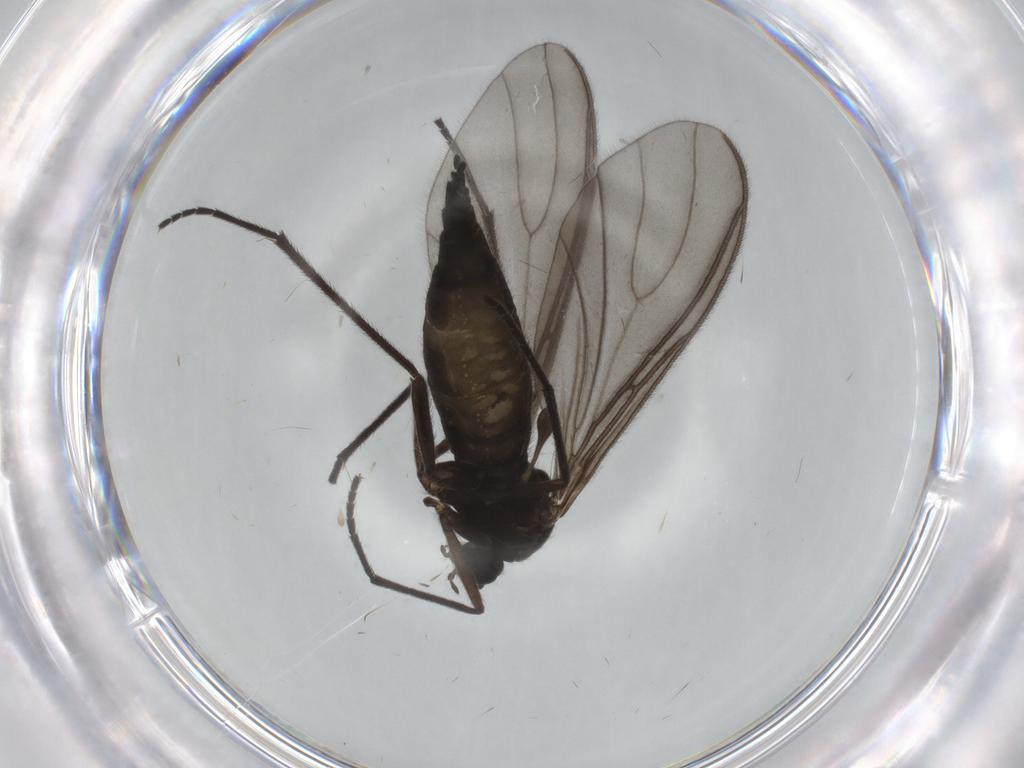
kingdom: Animalia
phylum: Arthropoda
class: Insecta
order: Diptera
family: Sciaridae
